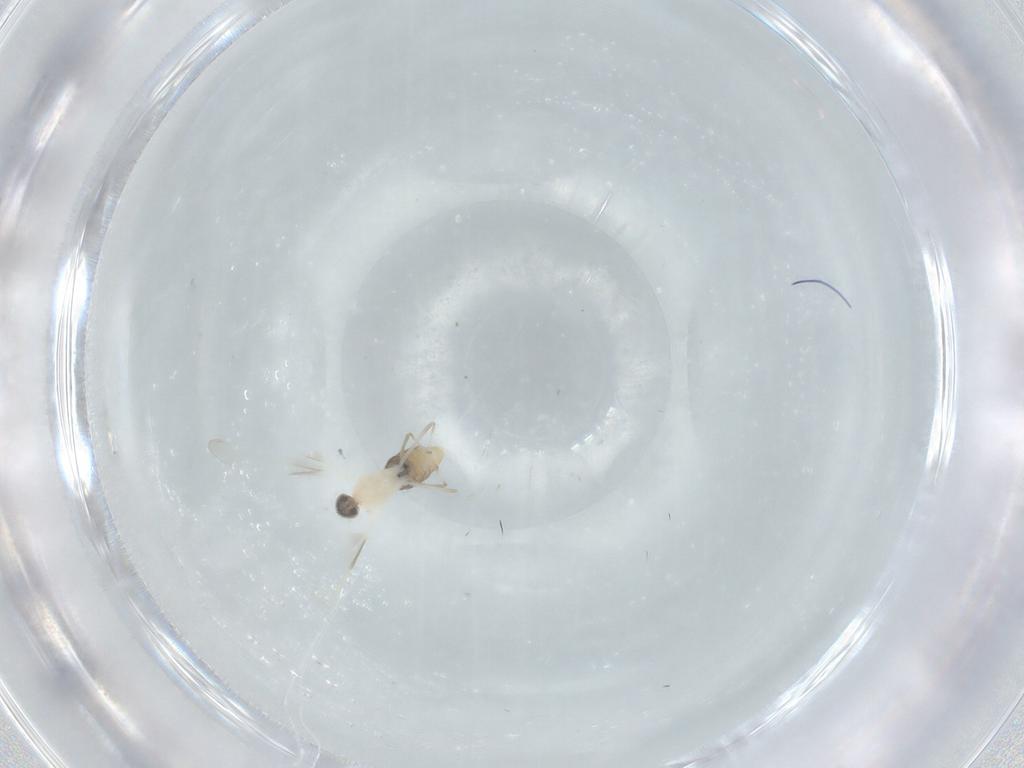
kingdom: Animalia
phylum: Arthropoda
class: Insecta
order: Diptera
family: Cecidomyiidae
